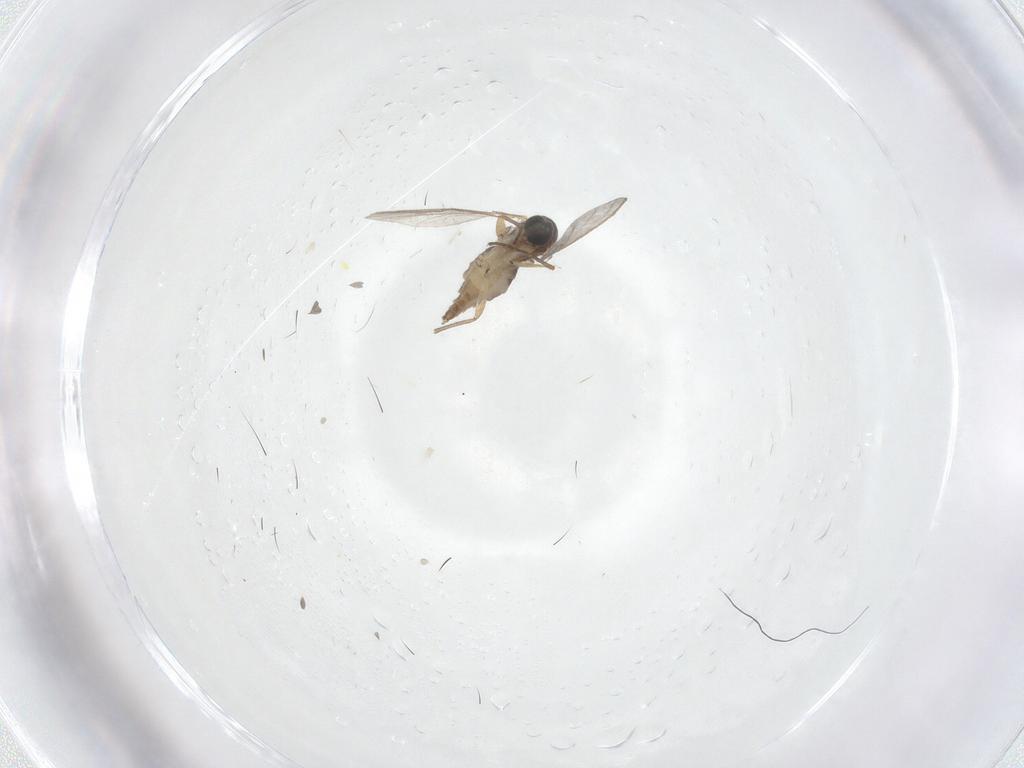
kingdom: Animalia
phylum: Arthropoda
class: Insecta
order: Diptera
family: Sciaridae
